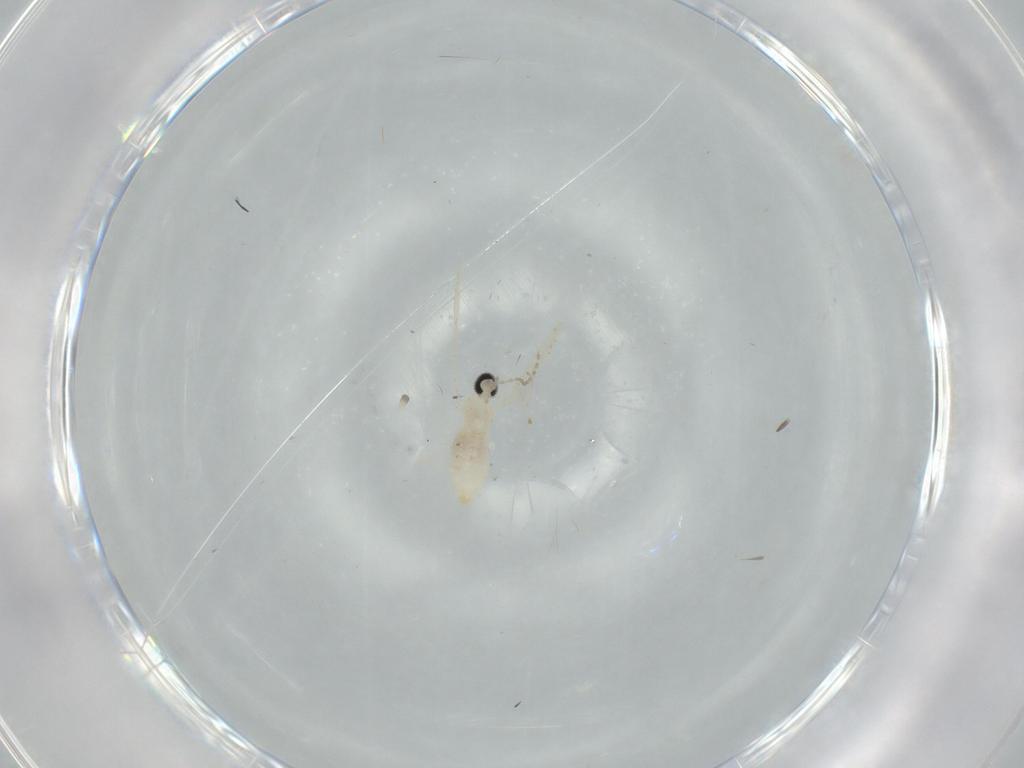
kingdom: Animalia
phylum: Arthropoda
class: Insecta
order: Diptera
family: Cecidomyiidae
